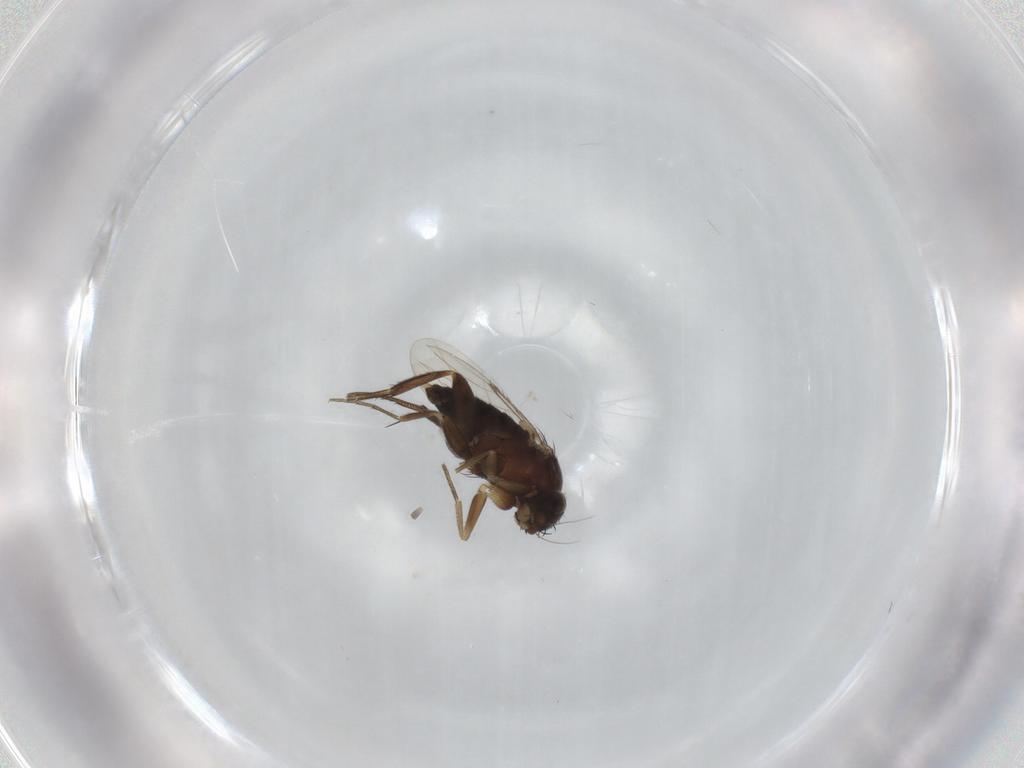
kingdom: Animalia
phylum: Arthropoda
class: Insecta
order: Diptera
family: Phoridae
